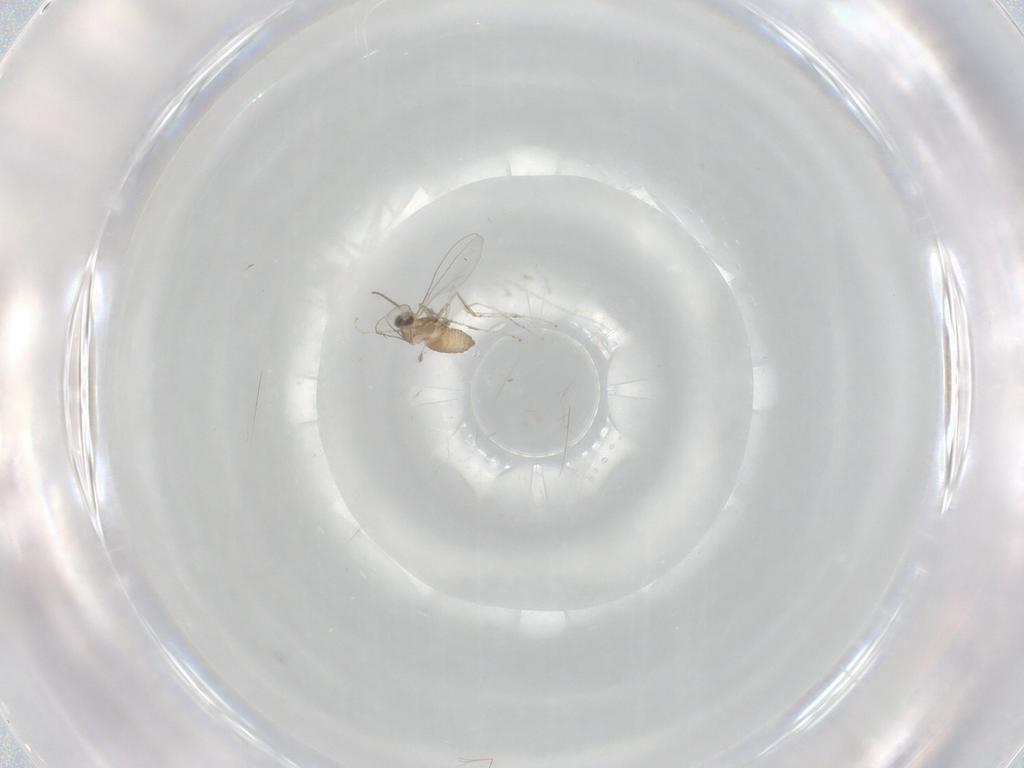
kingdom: Animalia
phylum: Arthropoda
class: Insecta
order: Diptera
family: Cecidomyiidae
